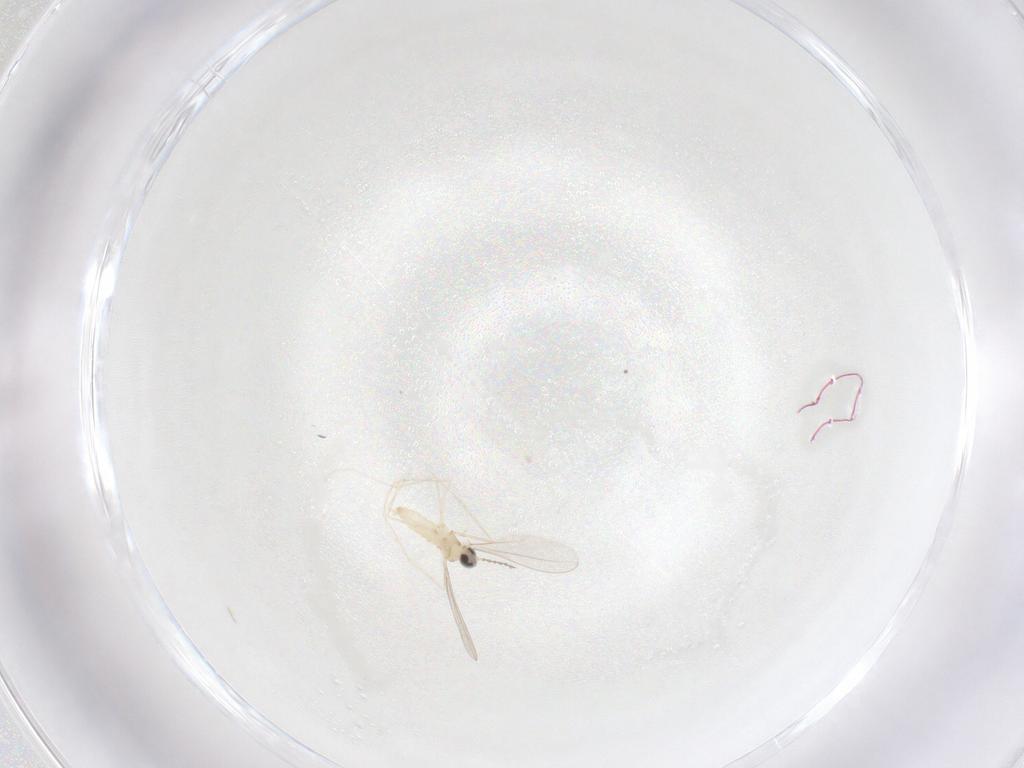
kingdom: Animalia
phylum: Arthropoda
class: Insecta
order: Diptera
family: Cecidomyiidae
